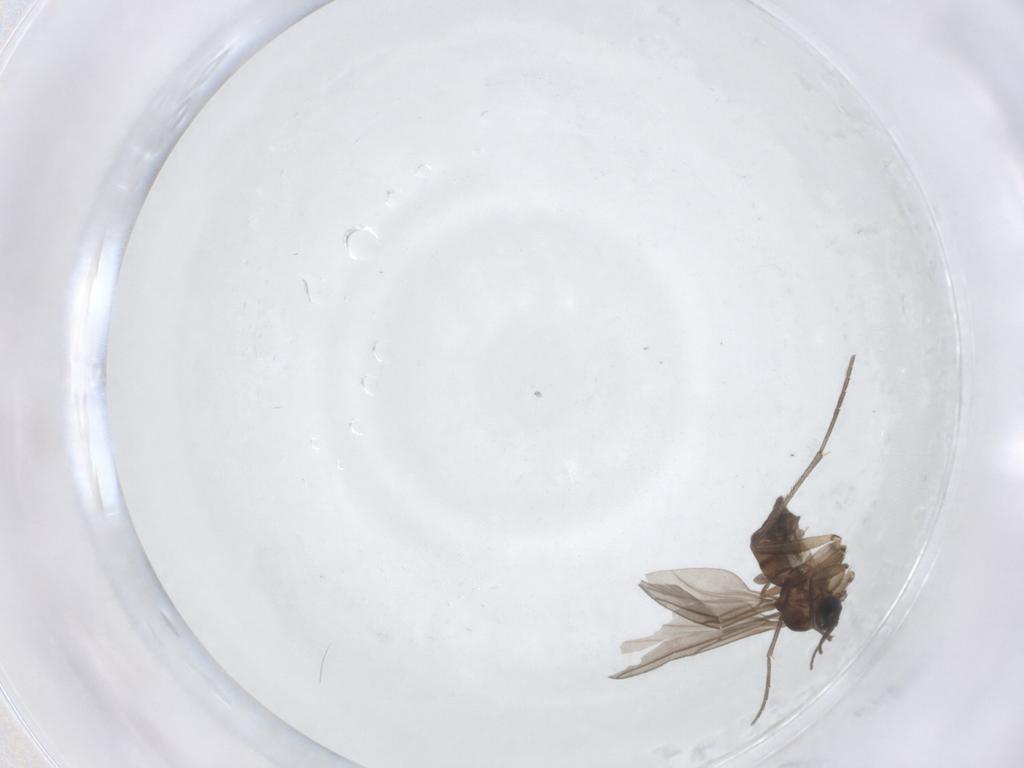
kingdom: Animalia
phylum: Arthropoda
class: Insecta
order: Diptera
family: Sciaridae
